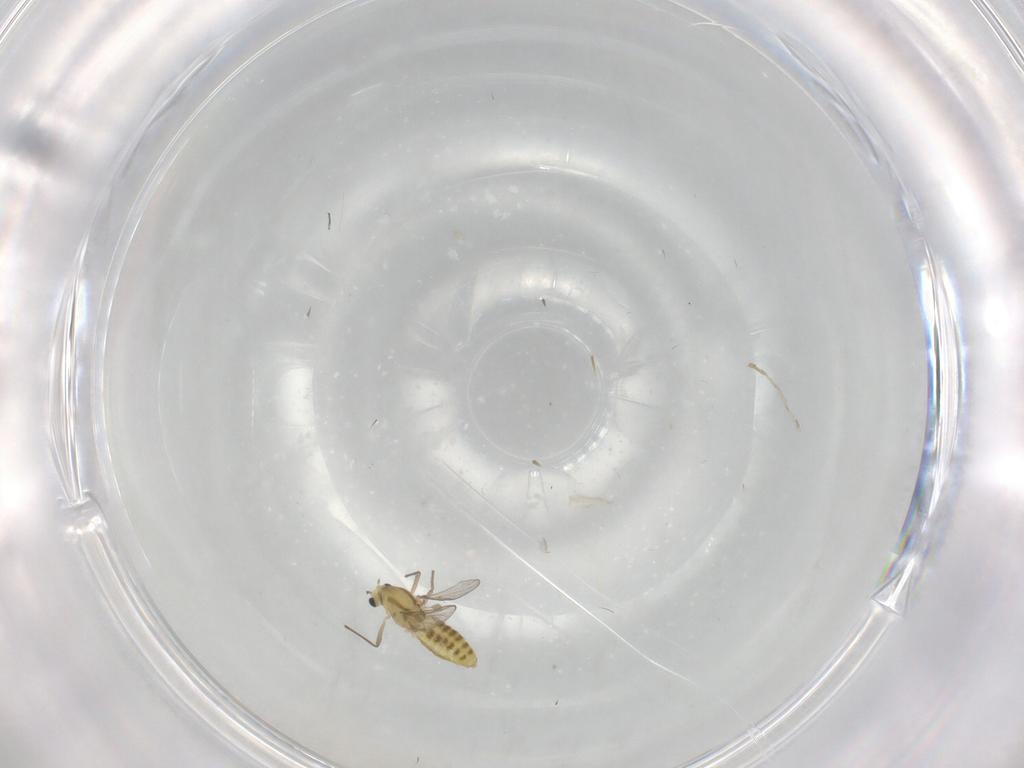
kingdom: Animalia
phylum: Arthropoda
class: Insecta
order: Diptera
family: Chironomidae
